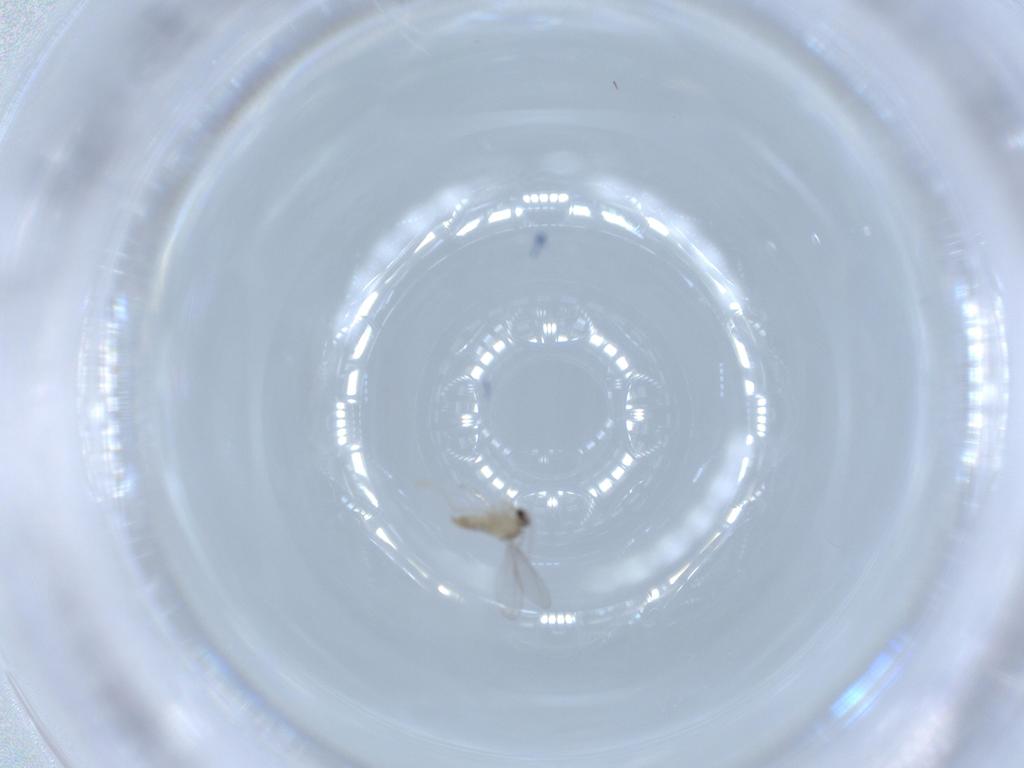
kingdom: Animalia
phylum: Arthropoda
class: Insecta
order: Diptera
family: Cecidomyiidae
